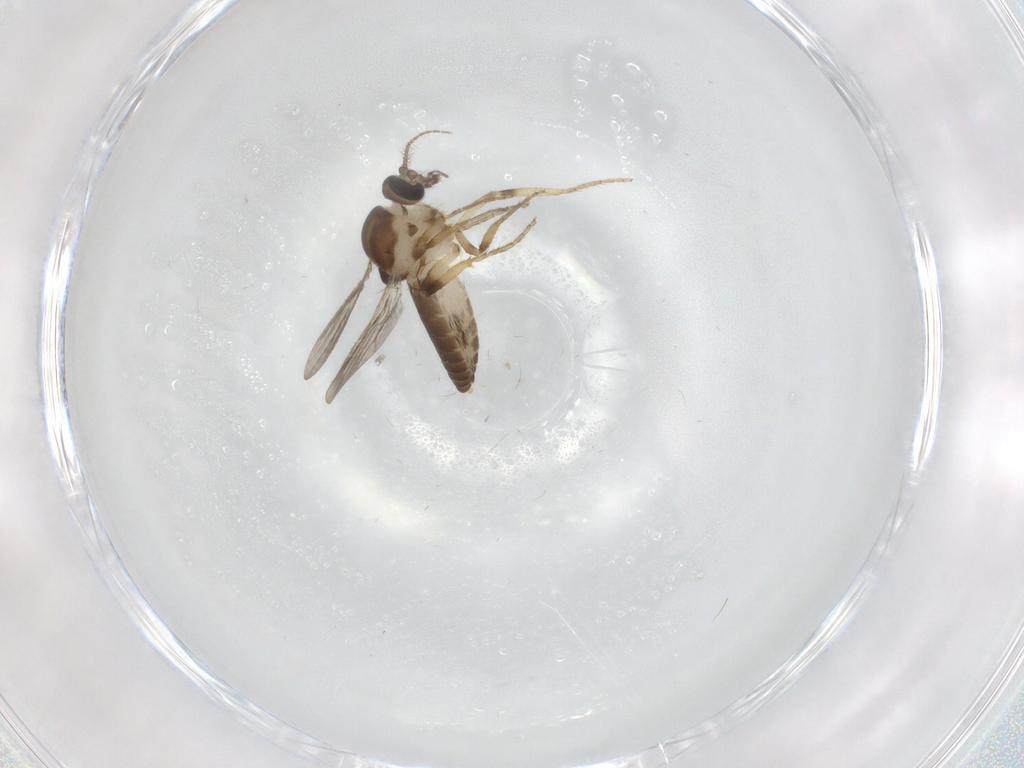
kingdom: Animalia
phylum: Arthropoda
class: Insecta
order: Diptera
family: Ceratopogonidae
